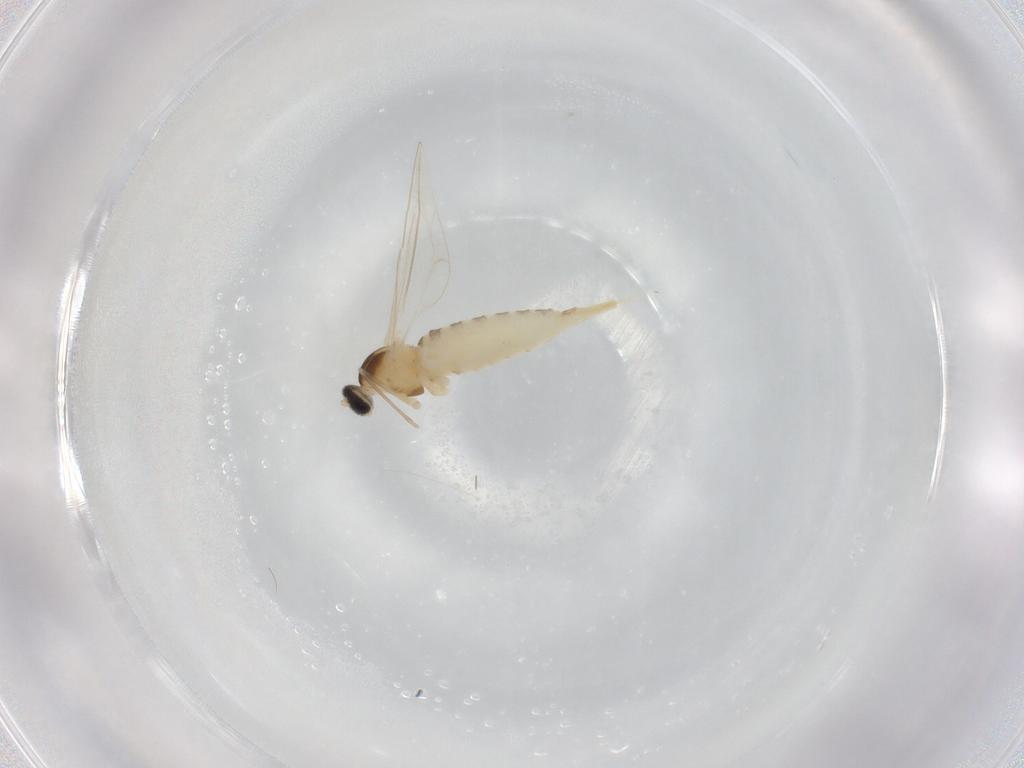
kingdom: Animalia
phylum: Arthropoda
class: Insecta
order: Diptera
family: Cecidomyiidae
